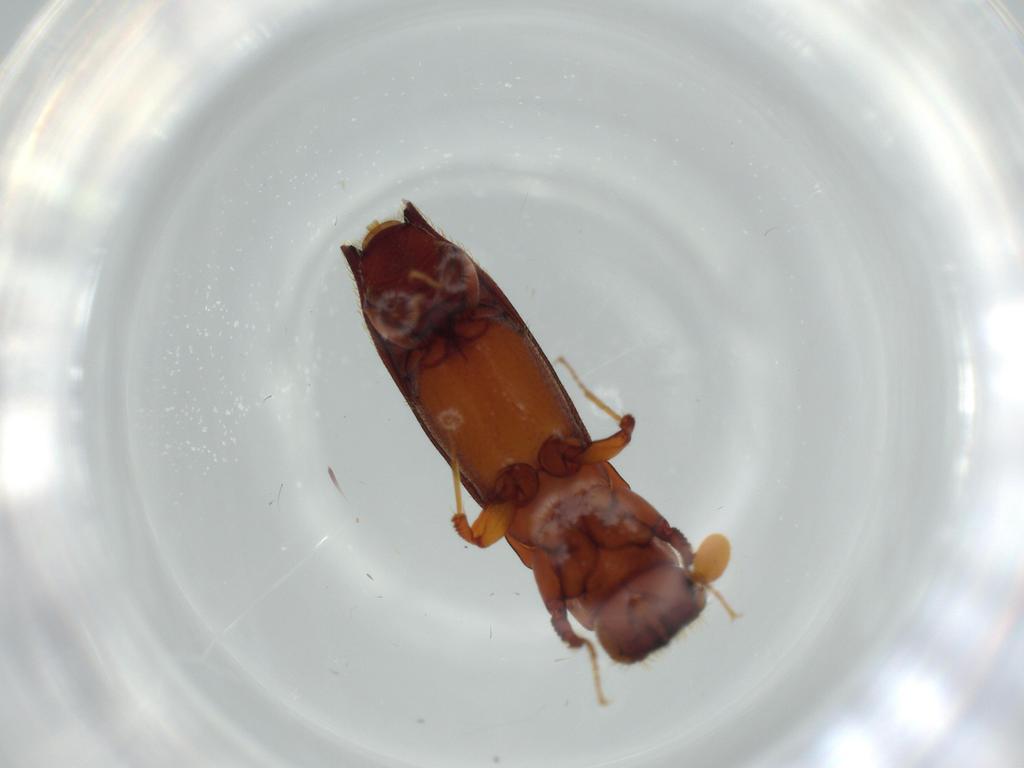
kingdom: Animalia
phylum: Arthropoda
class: Insecta
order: Coleoptera
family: Curculionidae
